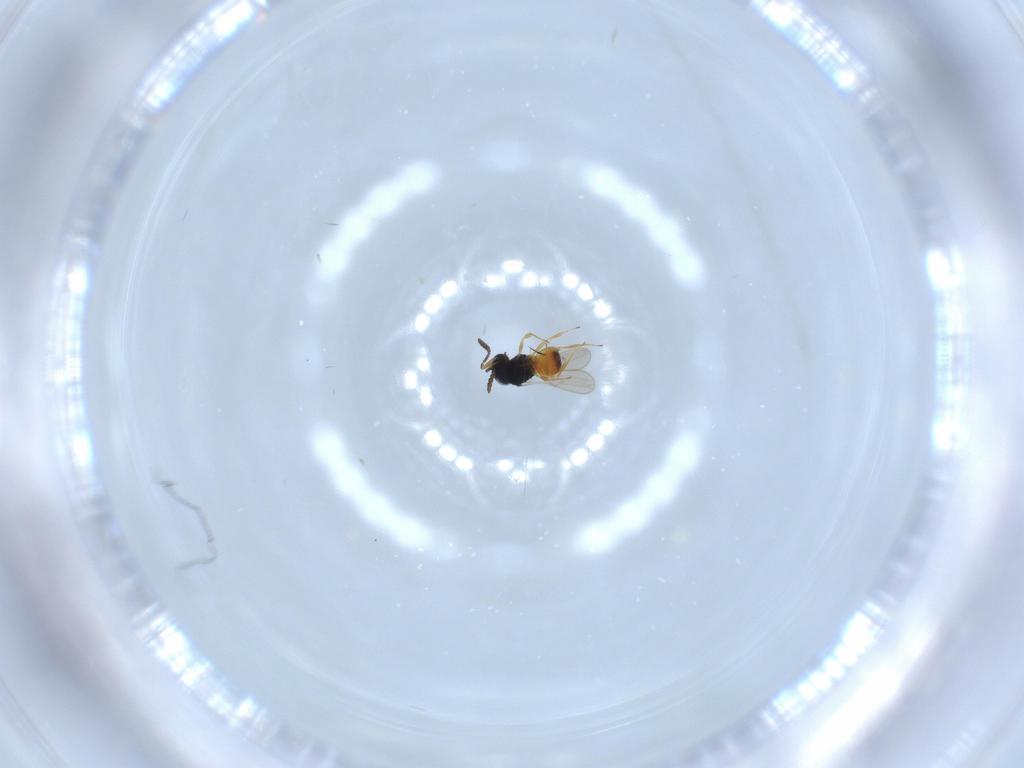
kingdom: Animalia
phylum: Arthropoda
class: Insecta
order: Hymenoptera
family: Scelionidae
